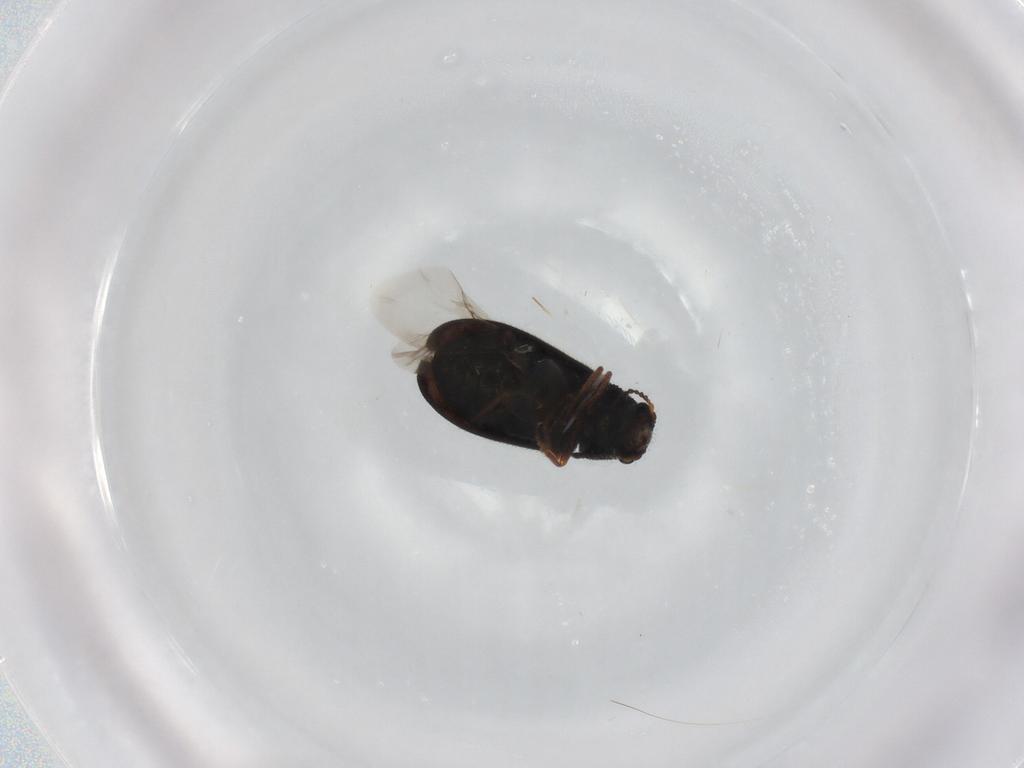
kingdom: Animalia
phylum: Arthropoda
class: Insecta
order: Coleoptera
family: Melyridae
